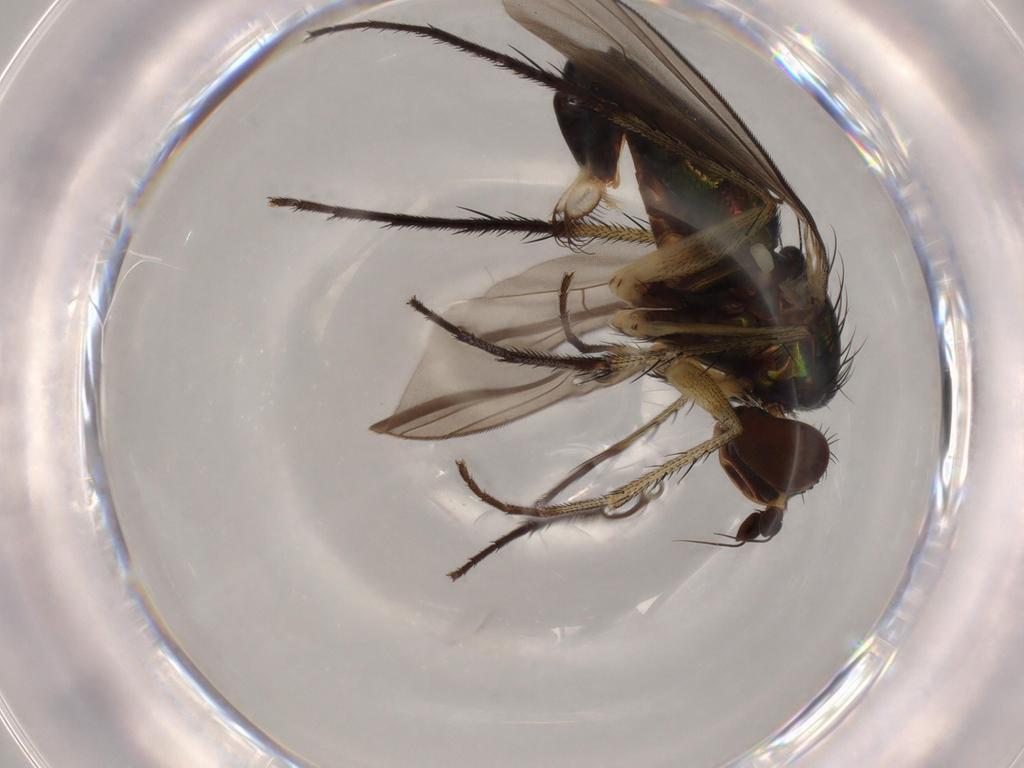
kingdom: Animalia
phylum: Arthropoda
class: Insecta
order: Diptera
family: Dolichopodidae
